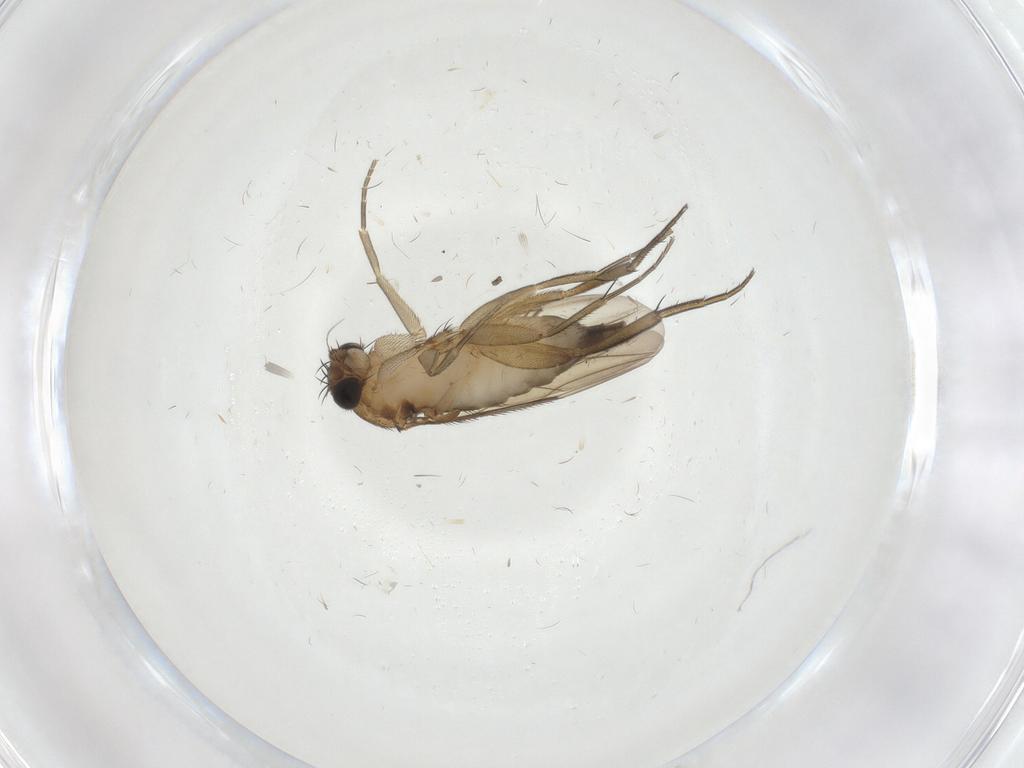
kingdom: Animalia
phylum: Arthropoda
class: Insecta
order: Diptera
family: Phoridae
